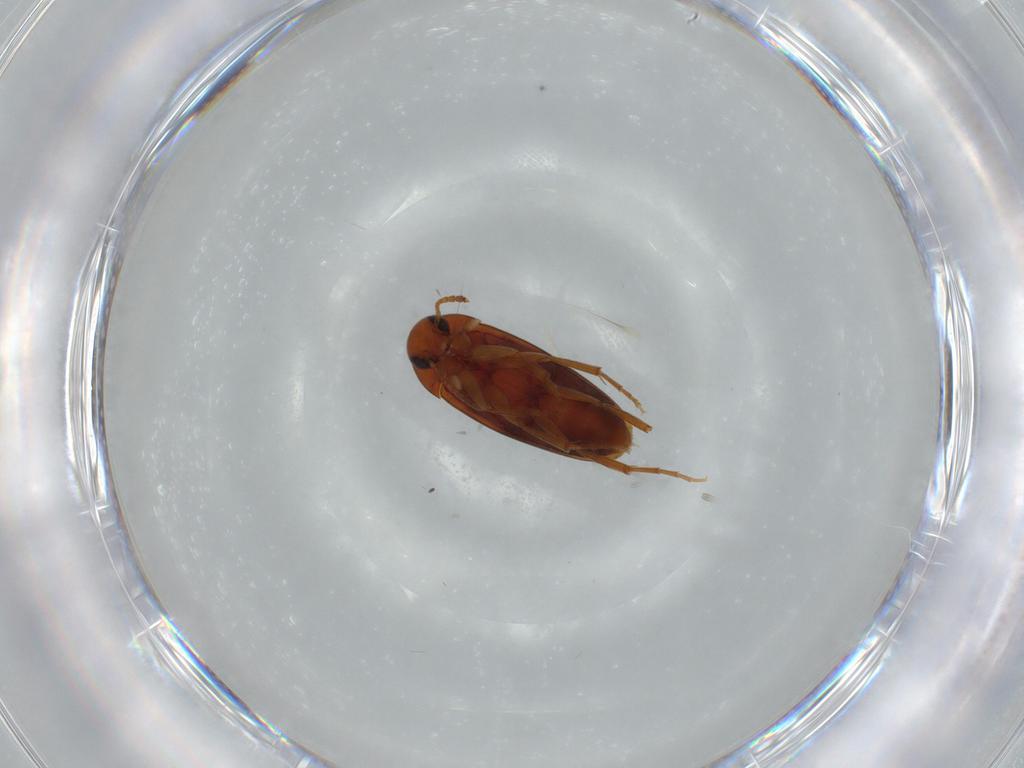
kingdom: Animalia
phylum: Arthropoda
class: Insecta
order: Coleoptera
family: Scraptiidae
